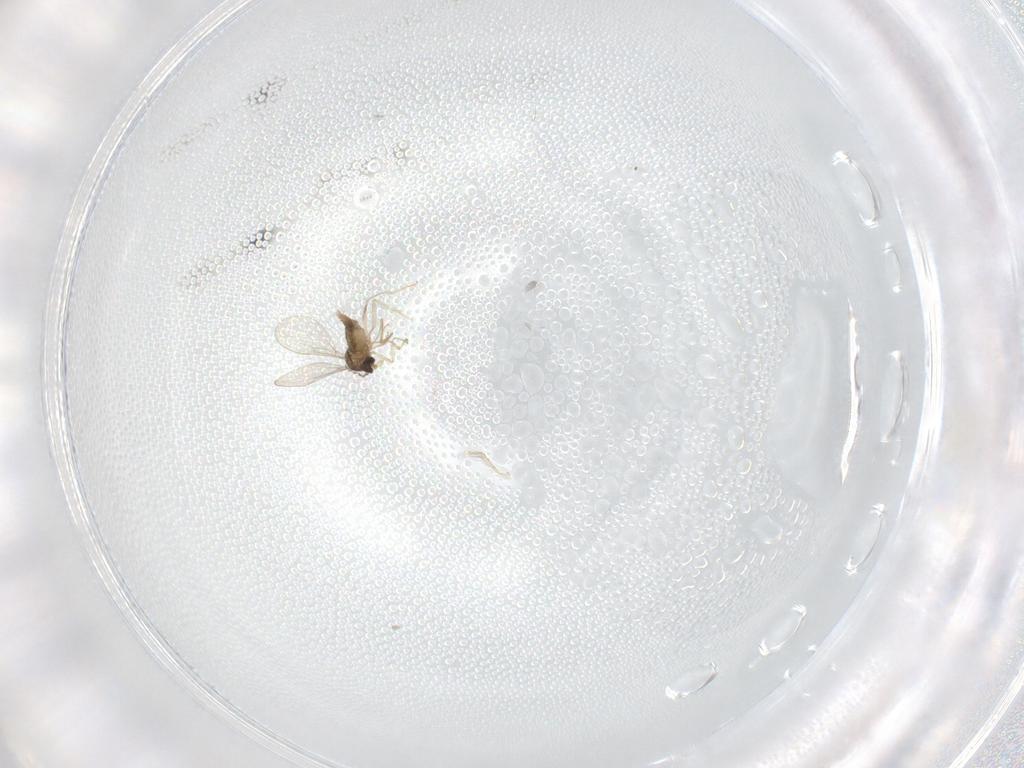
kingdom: Animalia
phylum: Arthropoda
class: Insecta
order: Diptera
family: Cecidomyiidae
